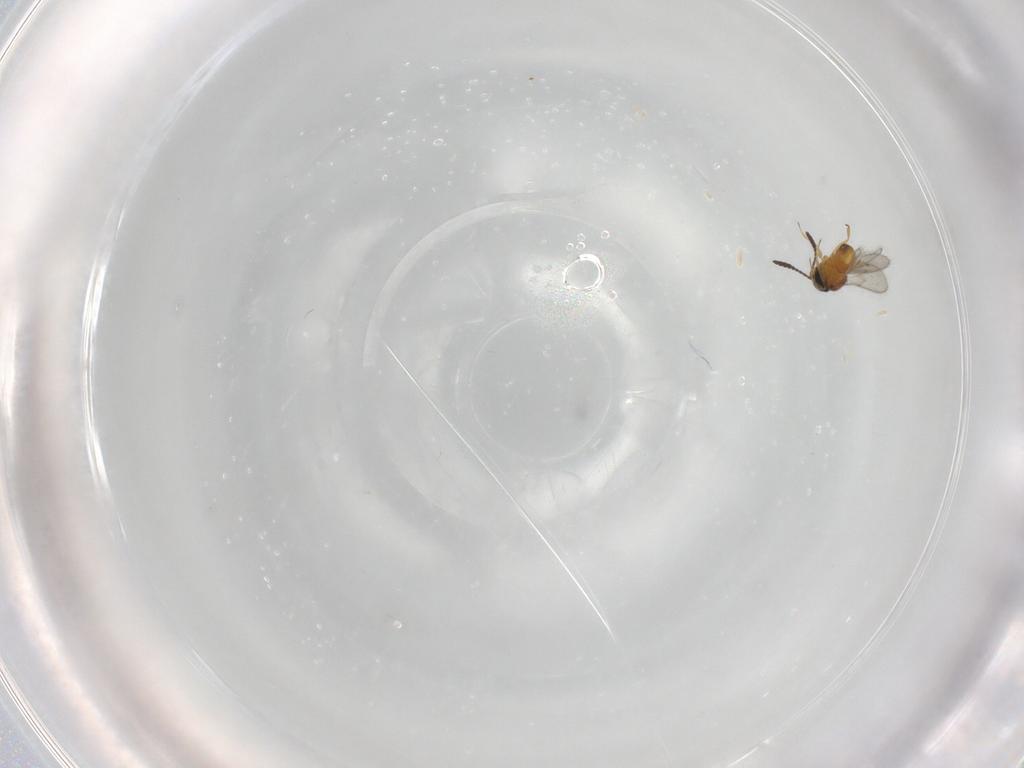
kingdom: Animalia
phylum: Arthropoda
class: Insecta
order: Hymenoptera
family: Scelionidae
